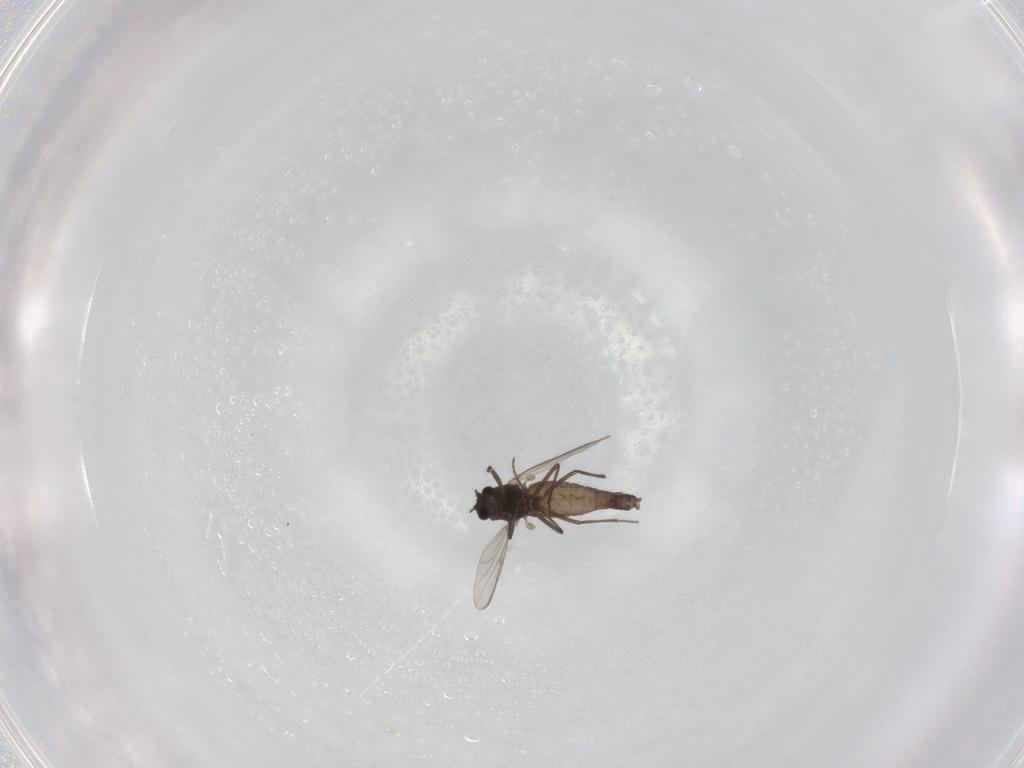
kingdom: Animalia
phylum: Arthropoda
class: Insecta
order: Diptera
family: Chironomidae
